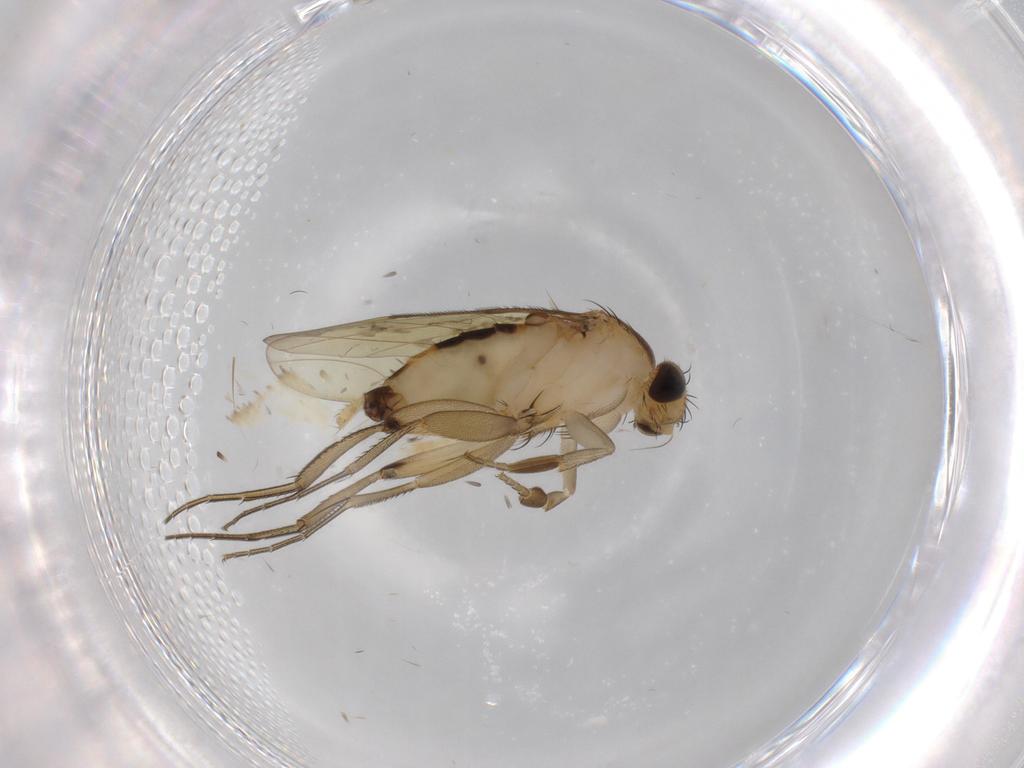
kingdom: Animalia
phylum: Arthropoda
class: Insecta
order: Diptera
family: Phoridae
